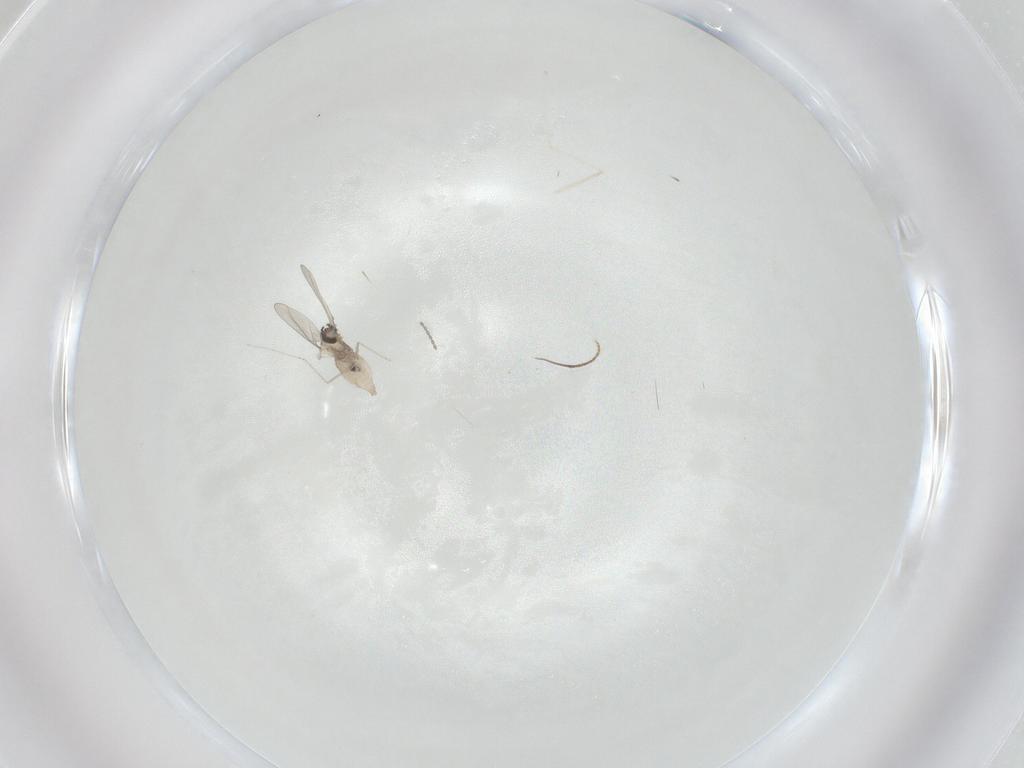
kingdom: Animalia
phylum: Arthropoda
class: Insecta
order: Diptera
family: Cecidomyiidae
